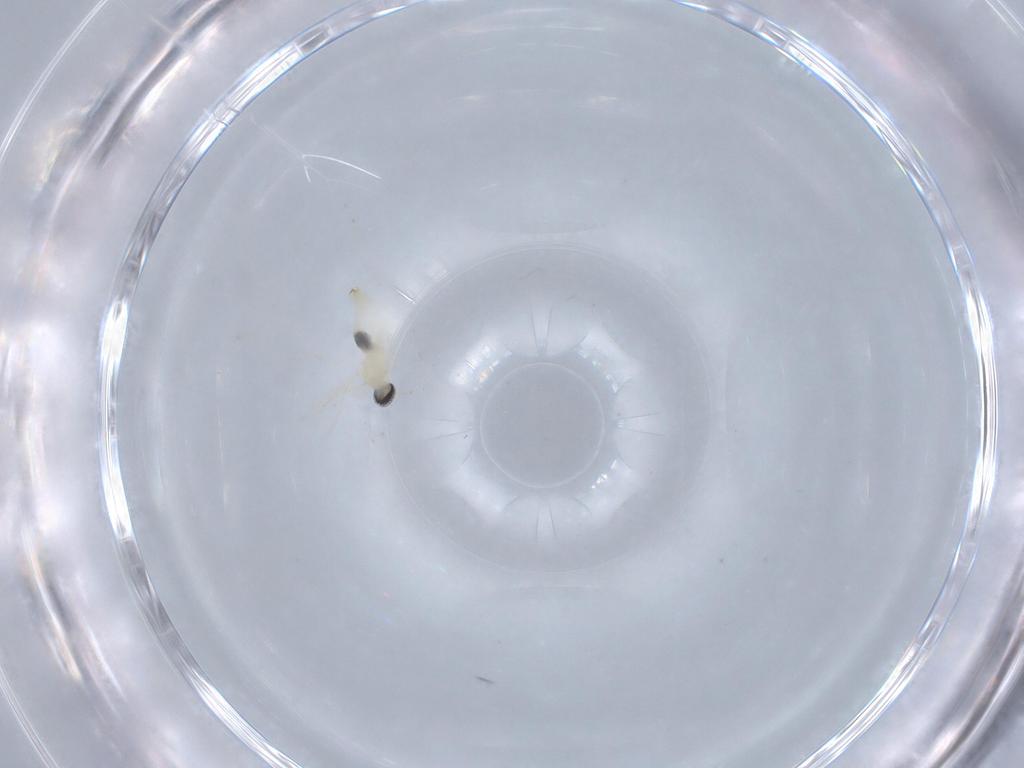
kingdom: Animalia
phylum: Arthropoda
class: Insecta
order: Diptera
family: Cecidomyiidae
